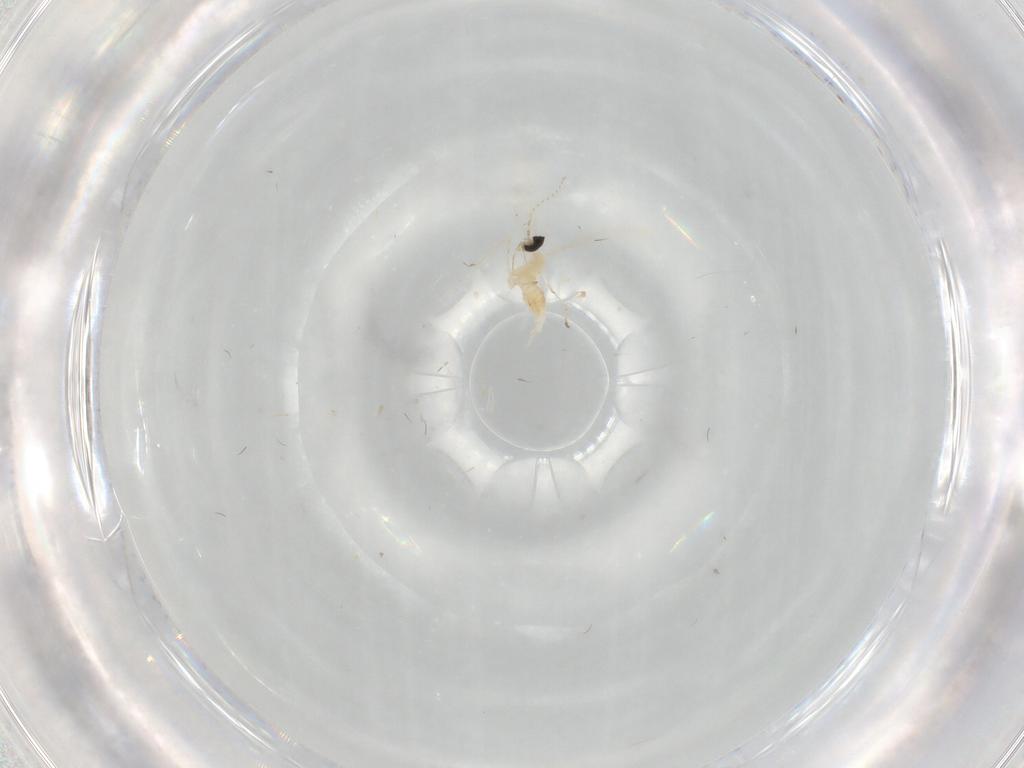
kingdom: Animalia
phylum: Arthropoda
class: Insecta
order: Diptera
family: Cecidomyiidae
